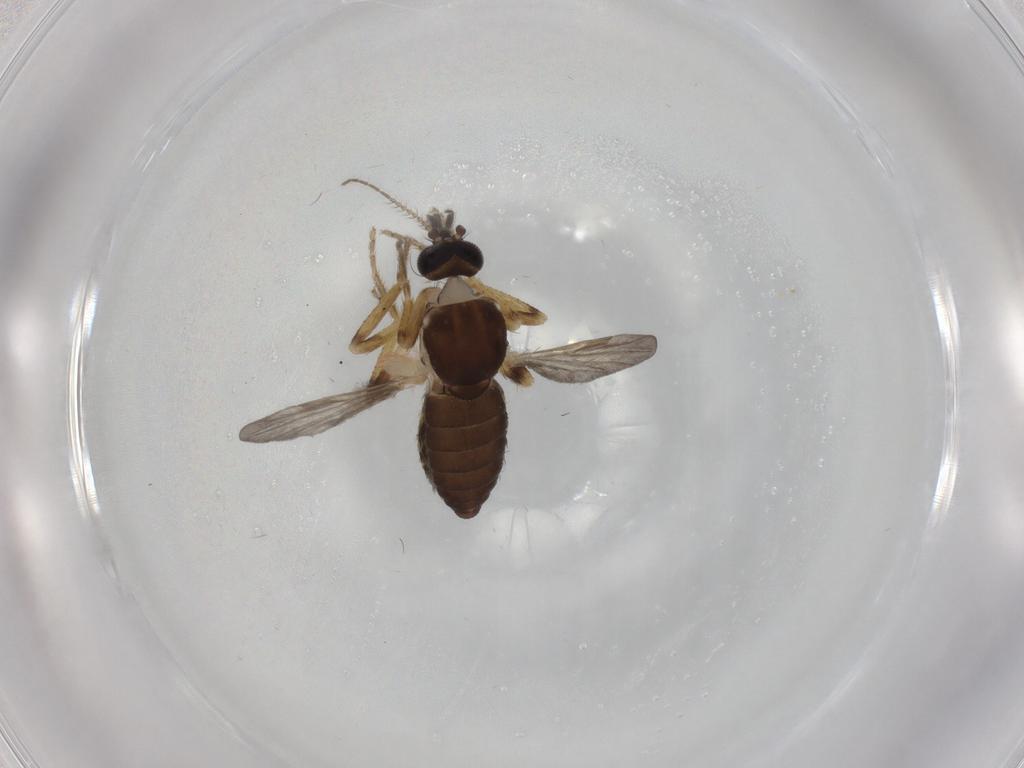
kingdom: Animalia
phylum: Arthropoda
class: Insecta
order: Diptera
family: Ceratopogonidae
